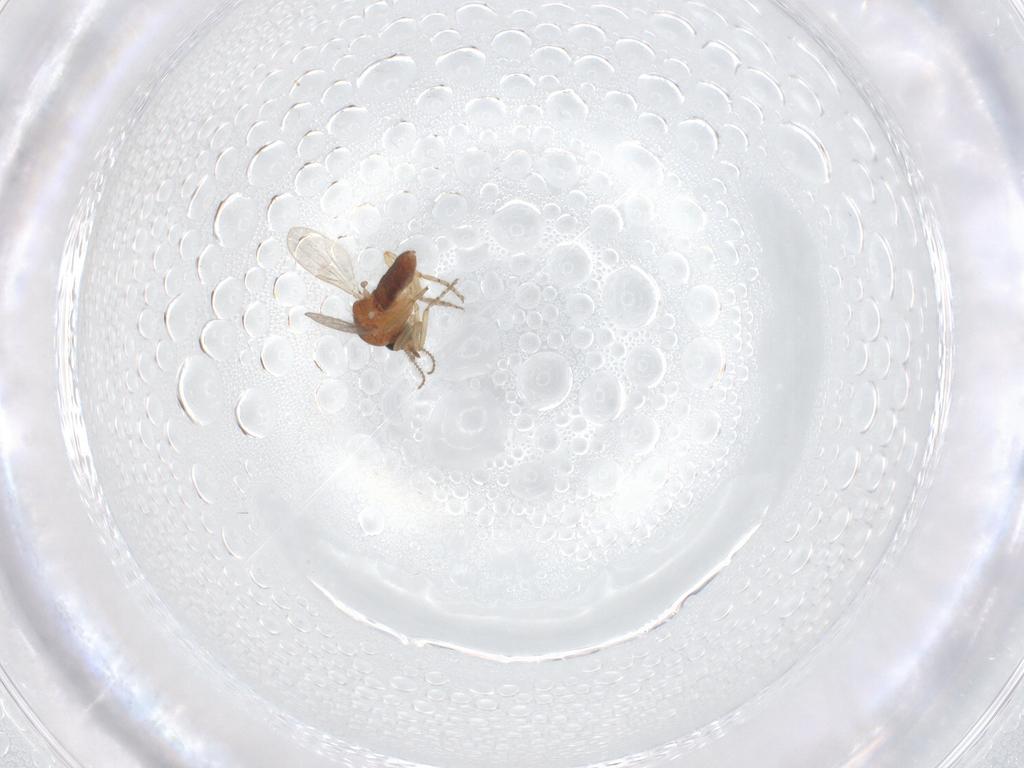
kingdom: Animalia
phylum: Arthropoda
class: Insecta
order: Diptera
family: Ceratopogonidae
